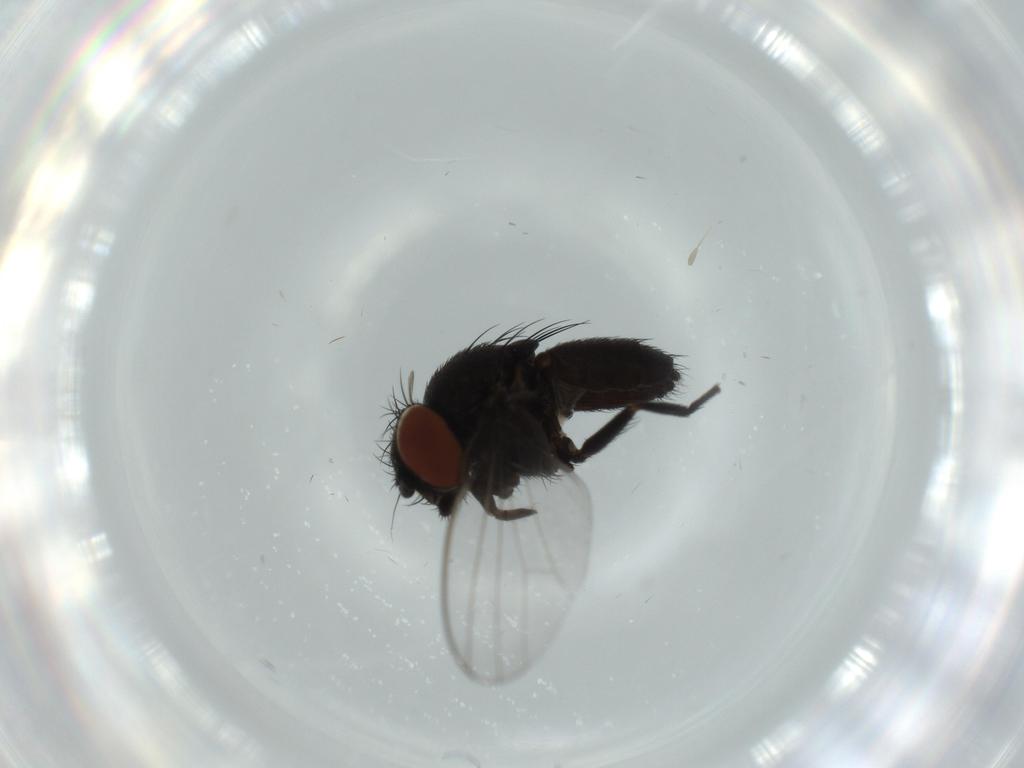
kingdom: Animalia
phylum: Arthropoda
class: Insecta
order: Diptera
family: Milichiidae
